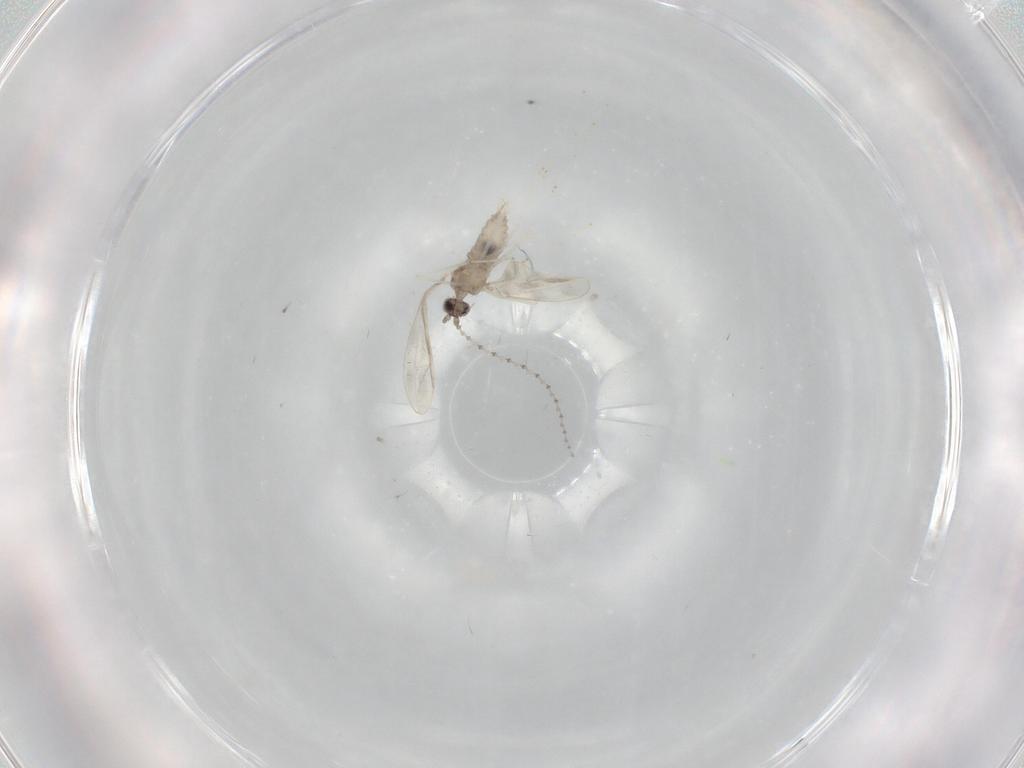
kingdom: Animalia
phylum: Arthropoda
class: Insecta
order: Diptera
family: Cecidomyiidae
